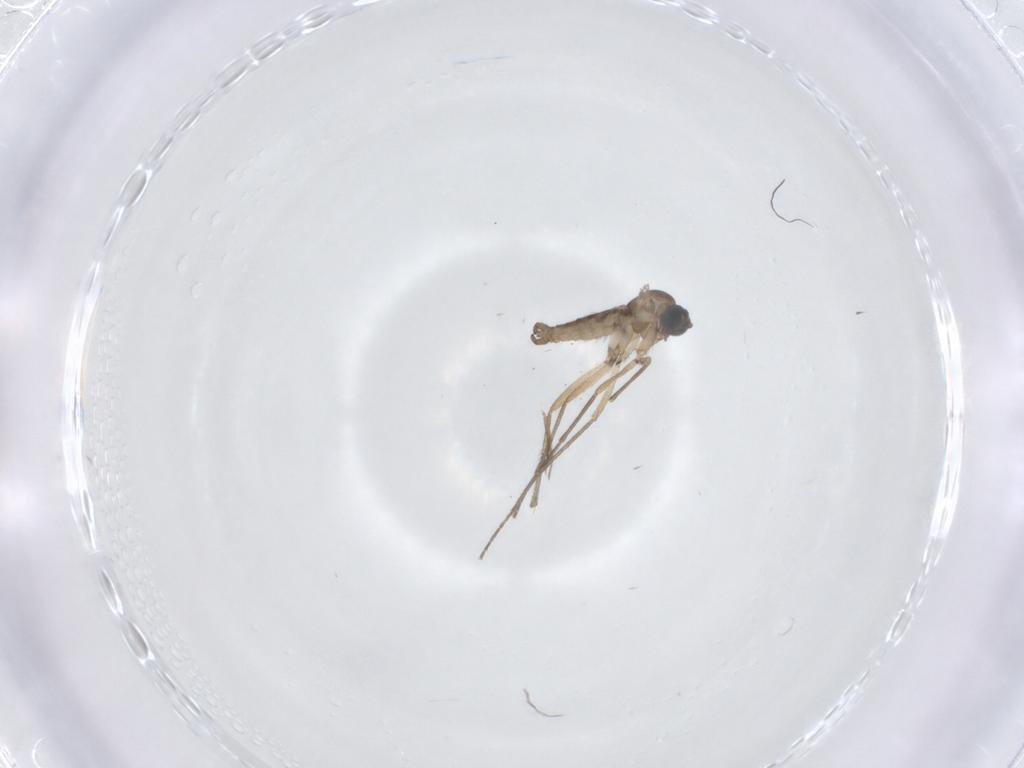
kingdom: Animalia
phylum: Arthropoda
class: Insecta
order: Diptera
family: Sciaridae
